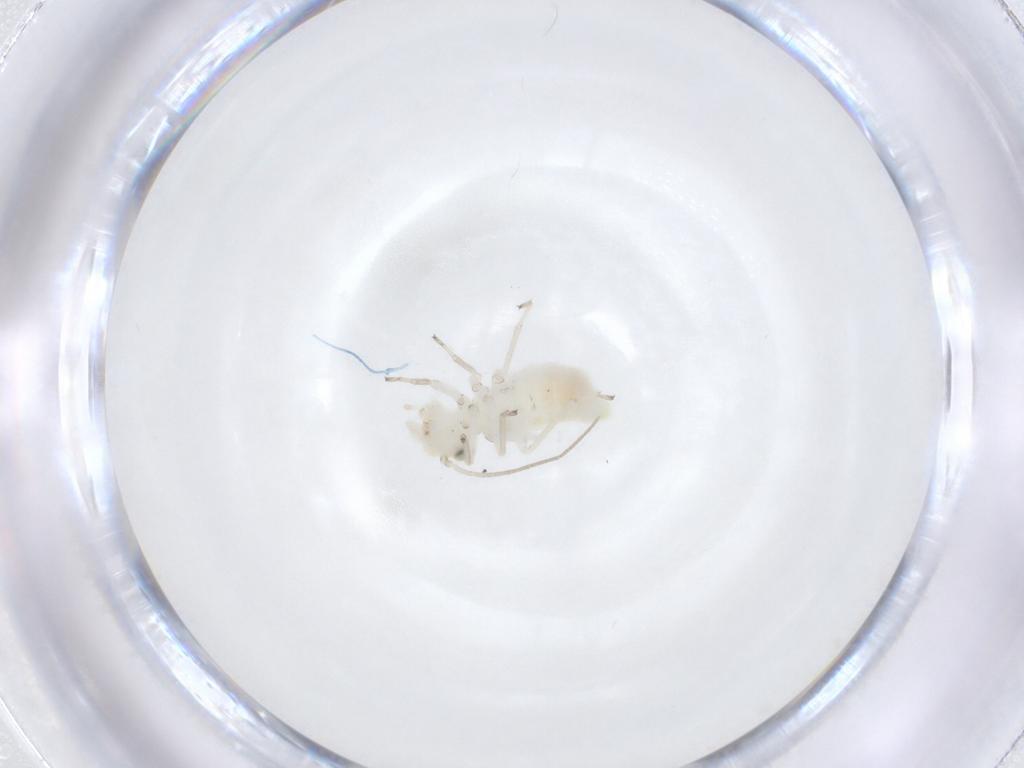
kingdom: Animalia
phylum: Arthropoda
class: Insecta
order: Psocodea
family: Caeciliusidae
